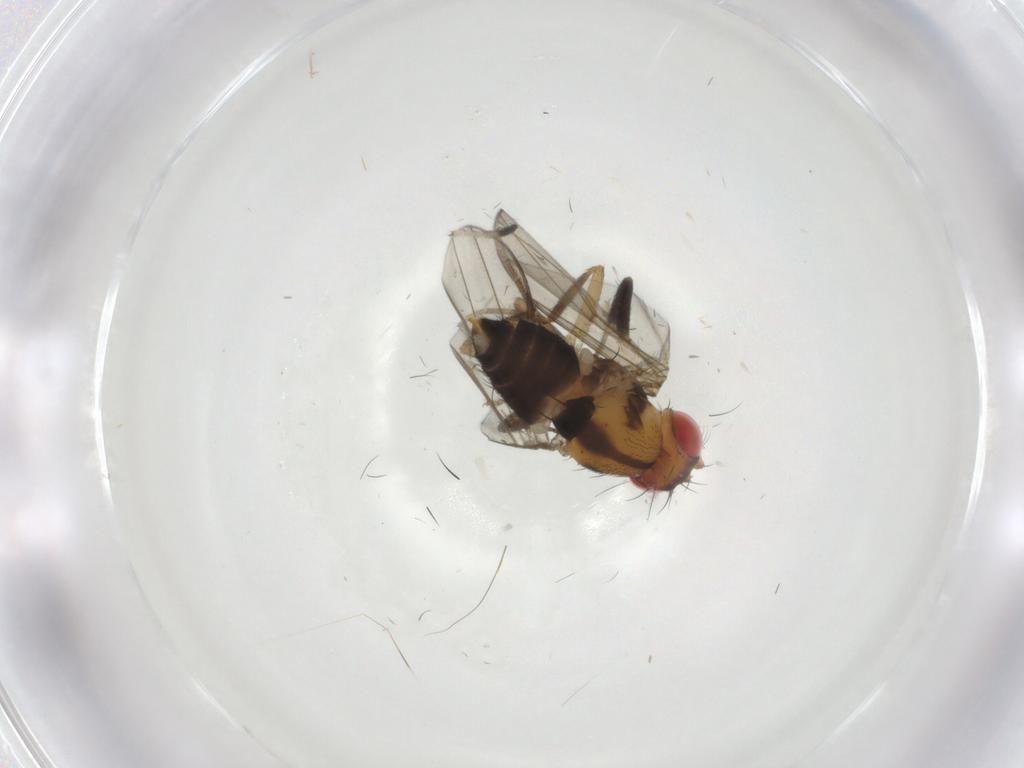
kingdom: Animalia
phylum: Arthropoda
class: Insecta
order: Diptera
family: Drosophilidae
